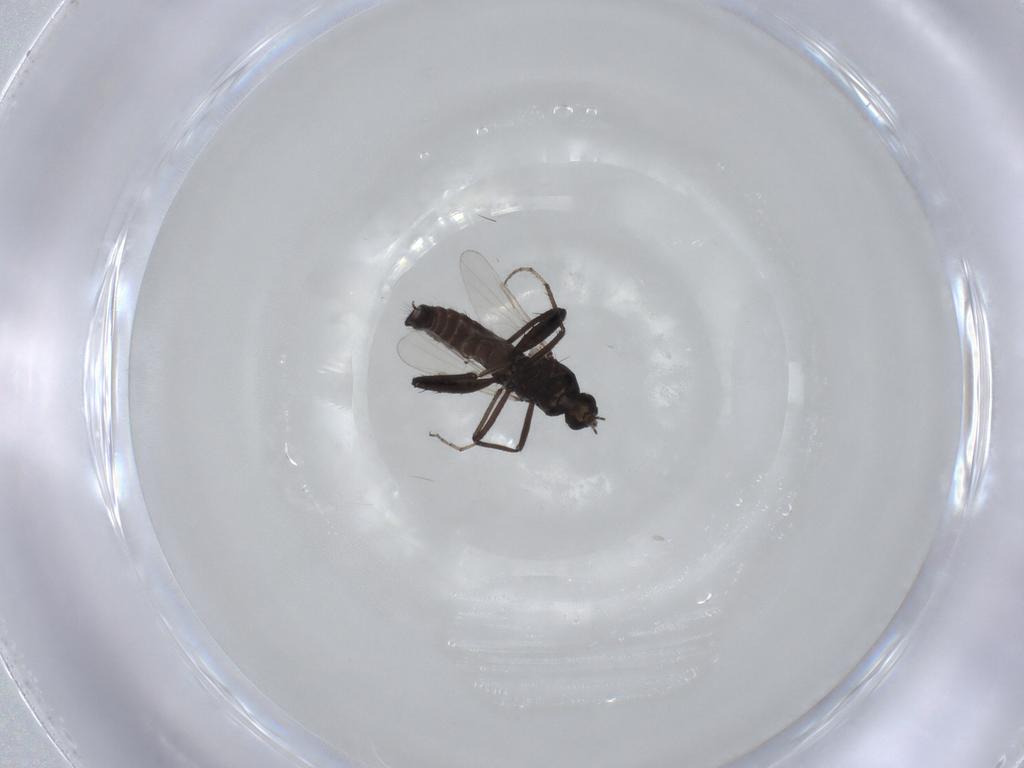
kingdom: Animalia
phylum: Arthropoda
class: Insecta
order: Diptera
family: Ceratopogonidae
